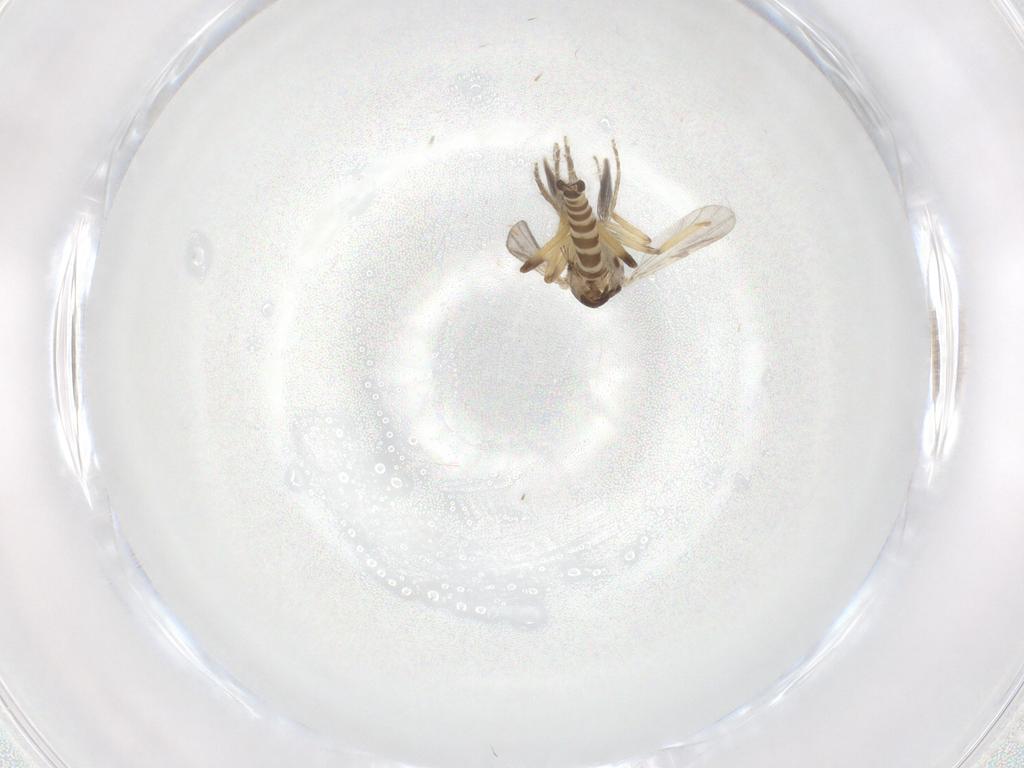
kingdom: Animalia
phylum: Arthropoda
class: Insecta
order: Diptera
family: Ceratopogonidae
